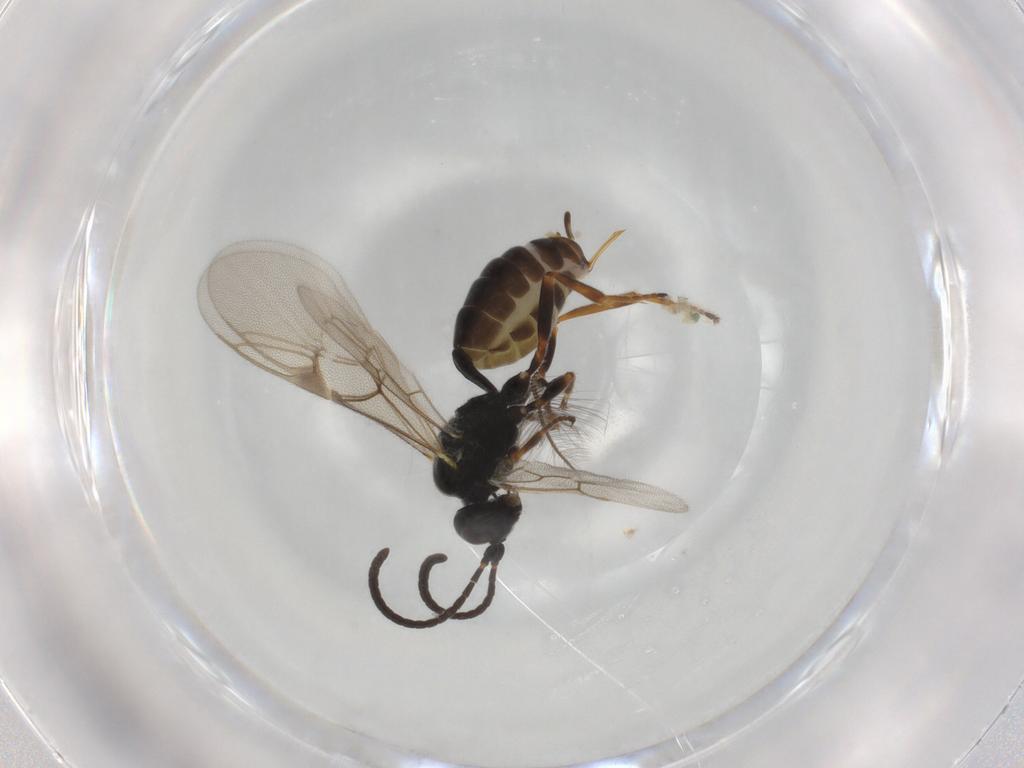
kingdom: Animalia
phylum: Arthropoda
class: Insecta
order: Hymenoptera
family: Ichneumonidae
